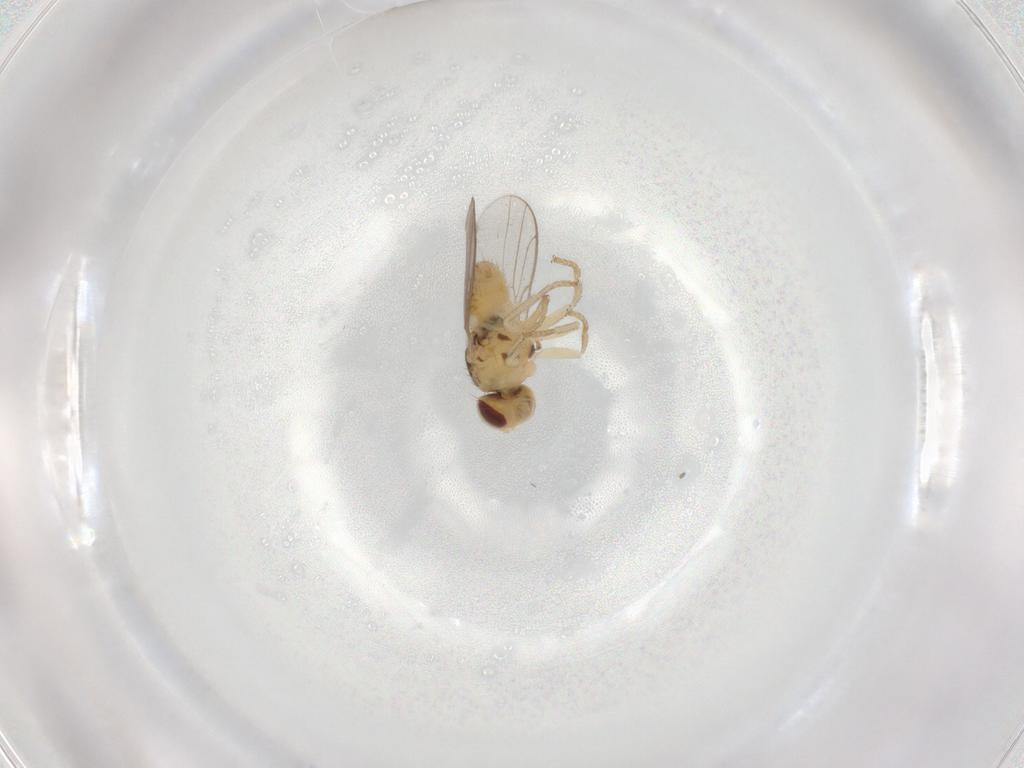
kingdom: Animalia
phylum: Arthropoda
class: Insecta
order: Diptera
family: Chloropidae
